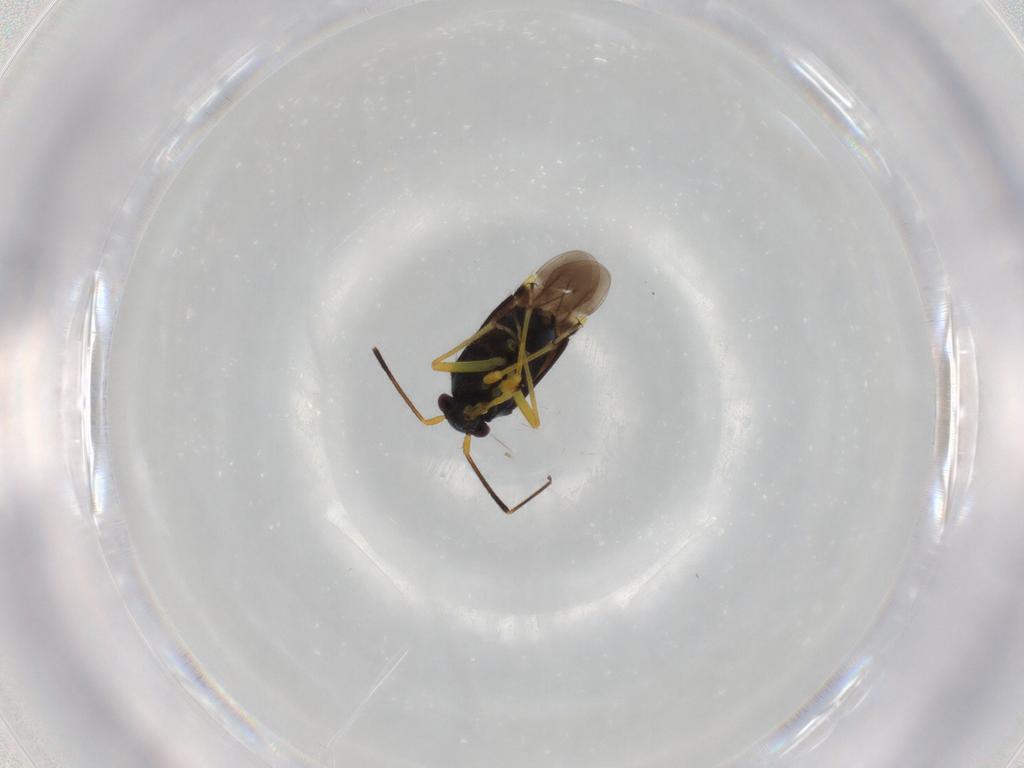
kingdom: Animalia
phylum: Arthropoda
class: Insecta
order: Hemiptera
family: Miridae
